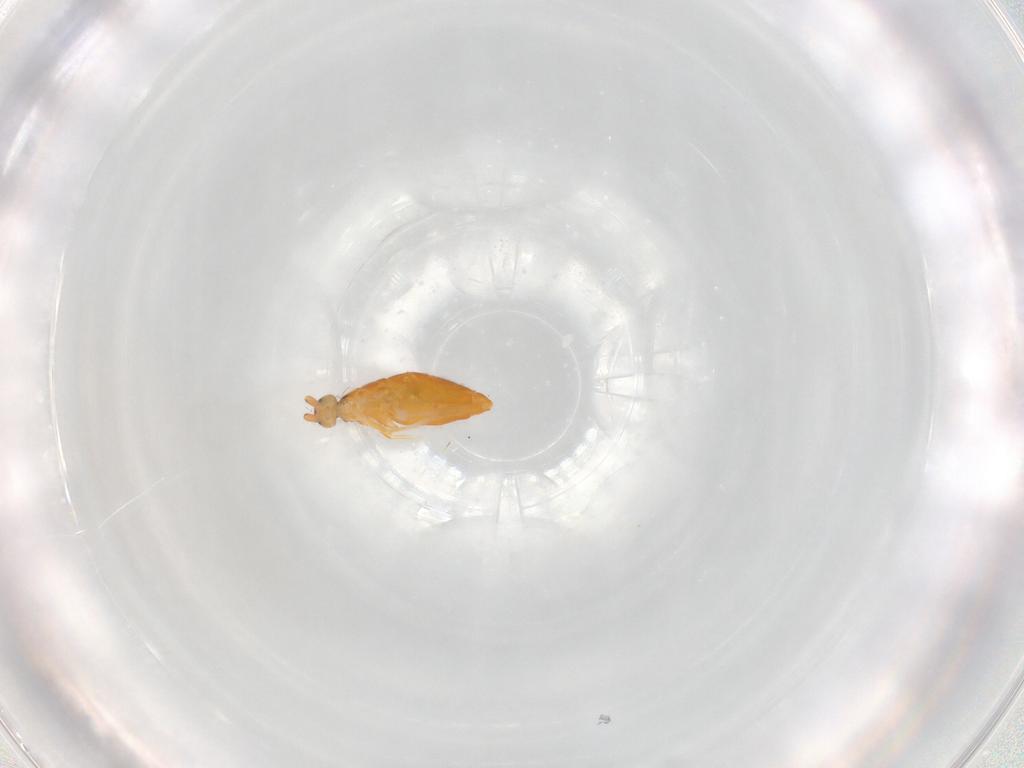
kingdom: Animalia
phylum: Arthropoda
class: Collembola
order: Entomobryomorpha
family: Entomobryidae
